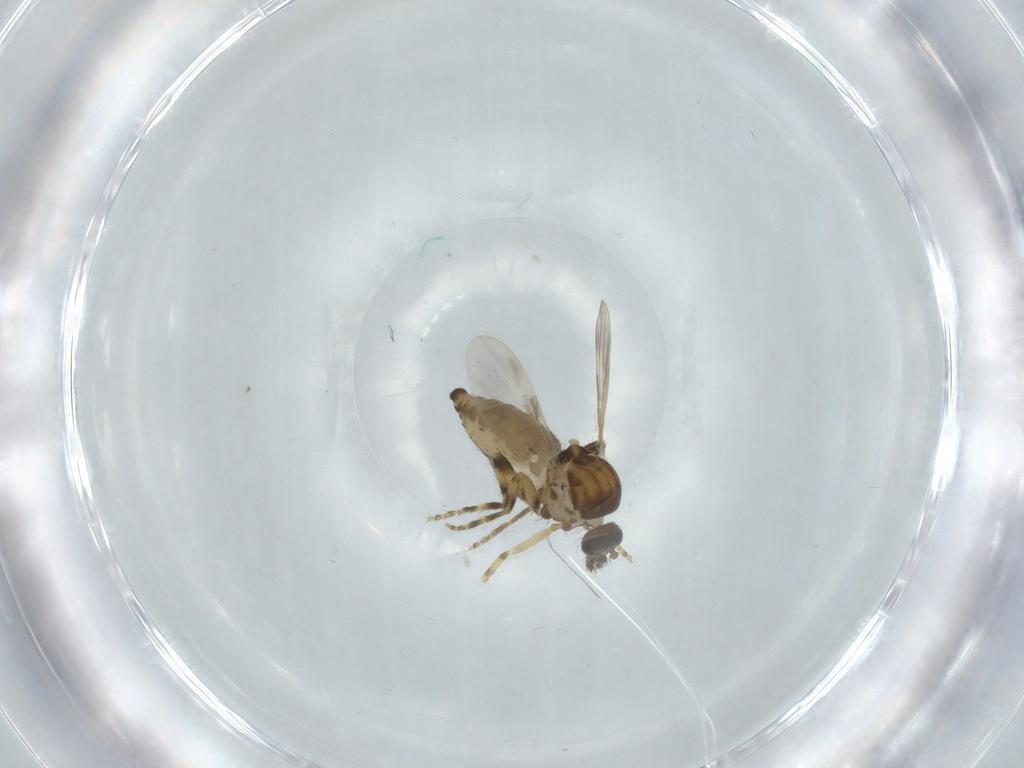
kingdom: Animalia
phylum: Arthropoda
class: Insecta
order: Diptera
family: Ceratopogonidae
